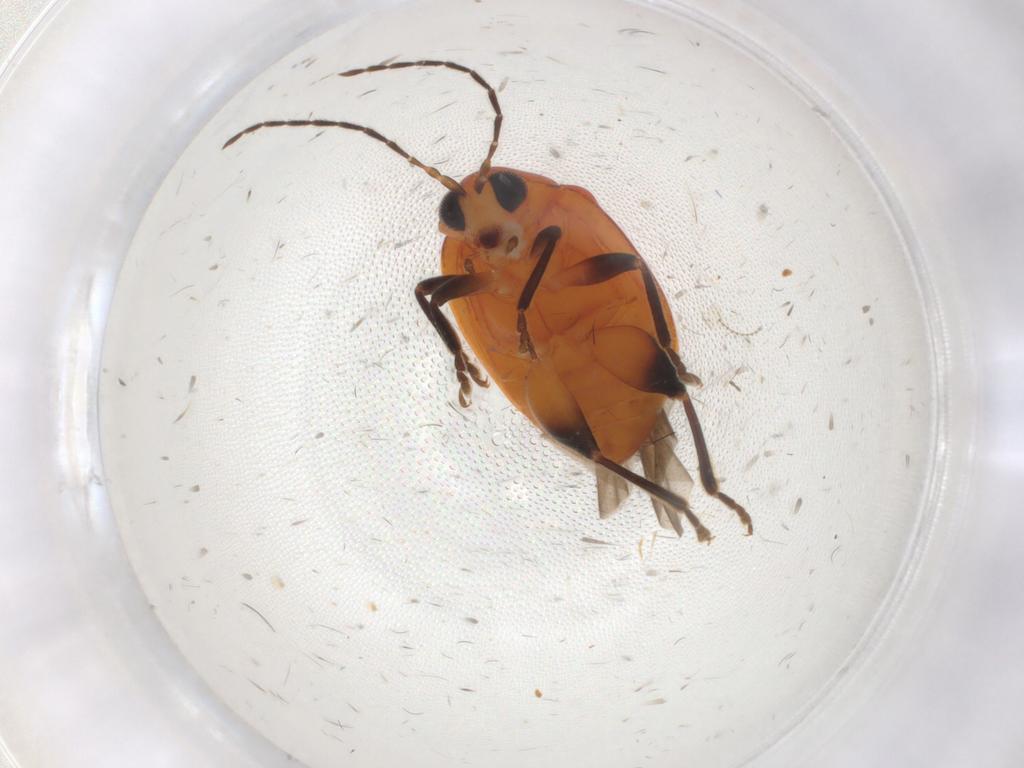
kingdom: Animalia
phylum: Arthropoda
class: Insecta
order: Coleoptera
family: Chrysomelidae
